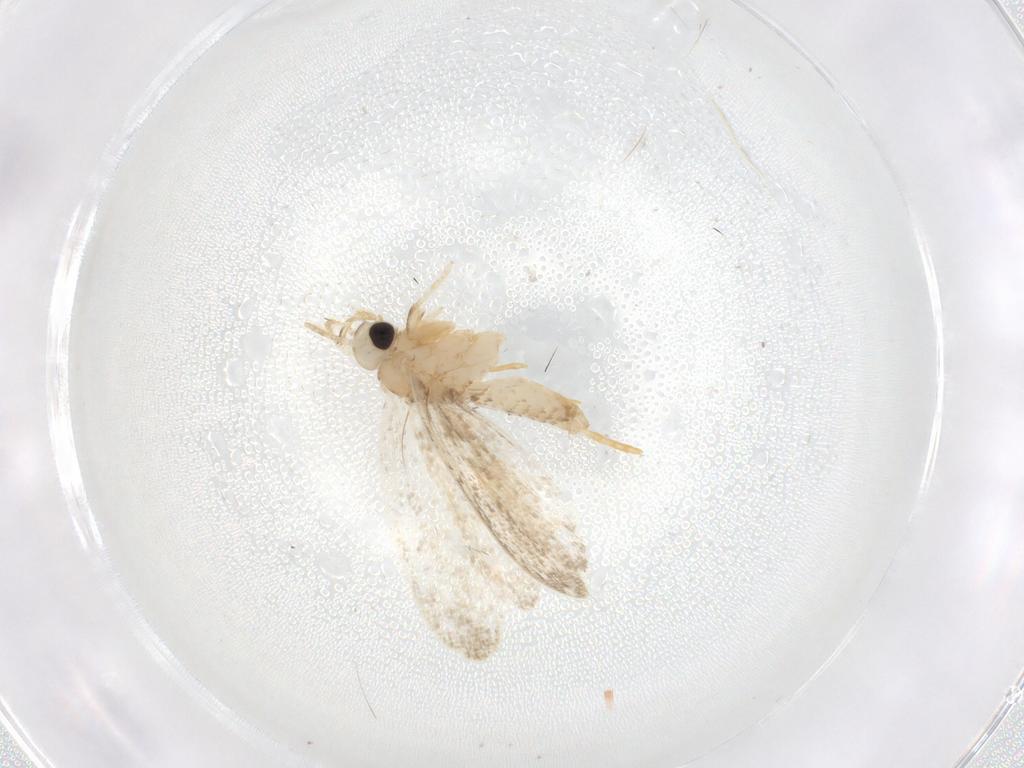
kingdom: Animalia
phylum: Arthropoda
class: Insecta
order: Lepidoptera
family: Psychidae
